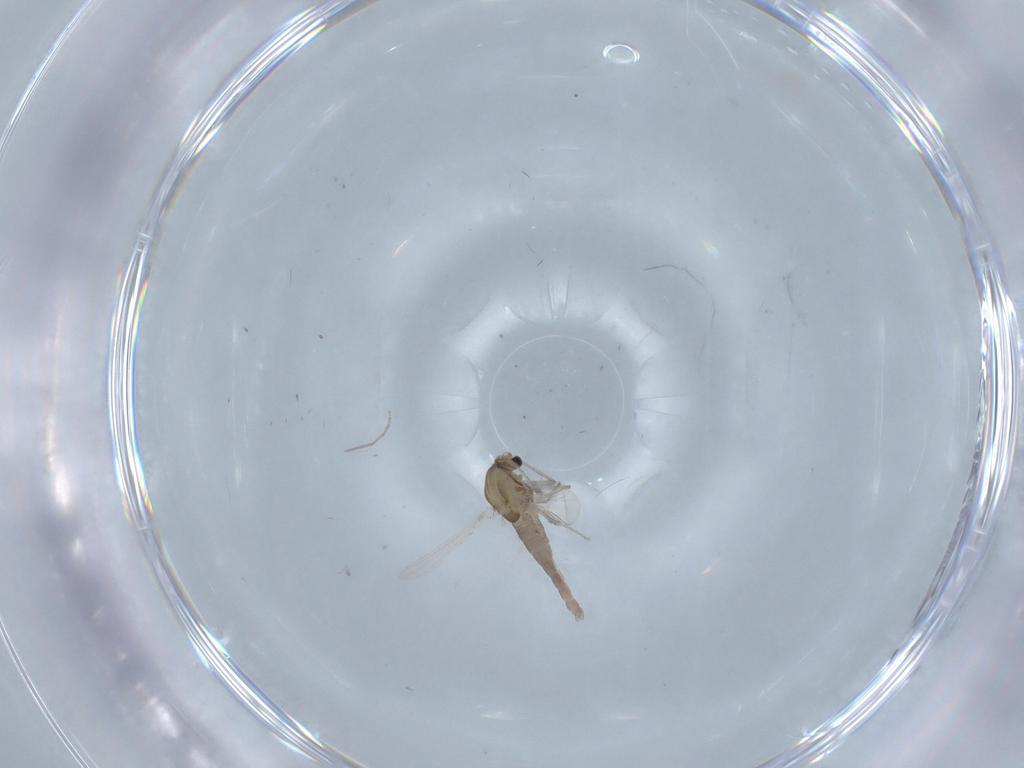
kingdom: Animalia
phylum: Arthropoda
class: Insecta
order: Diptera
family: Chironomidae
